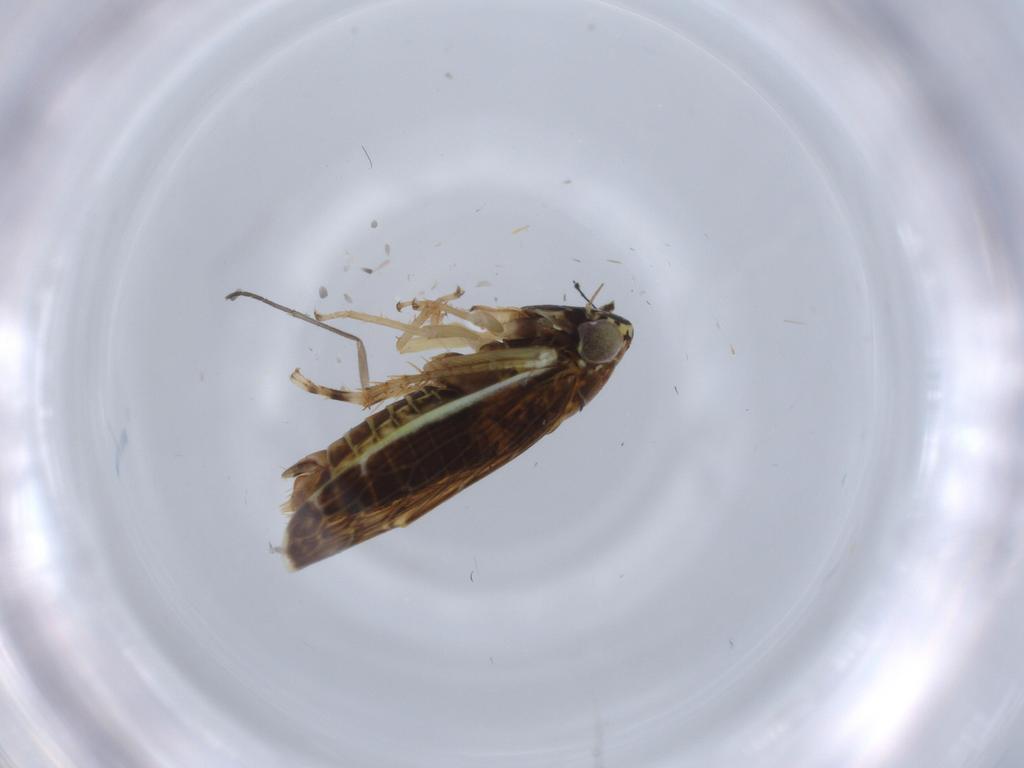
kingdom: Animalia
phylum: Arthropoda
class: Insecta
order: Hemiptera
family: Cicadellidae
